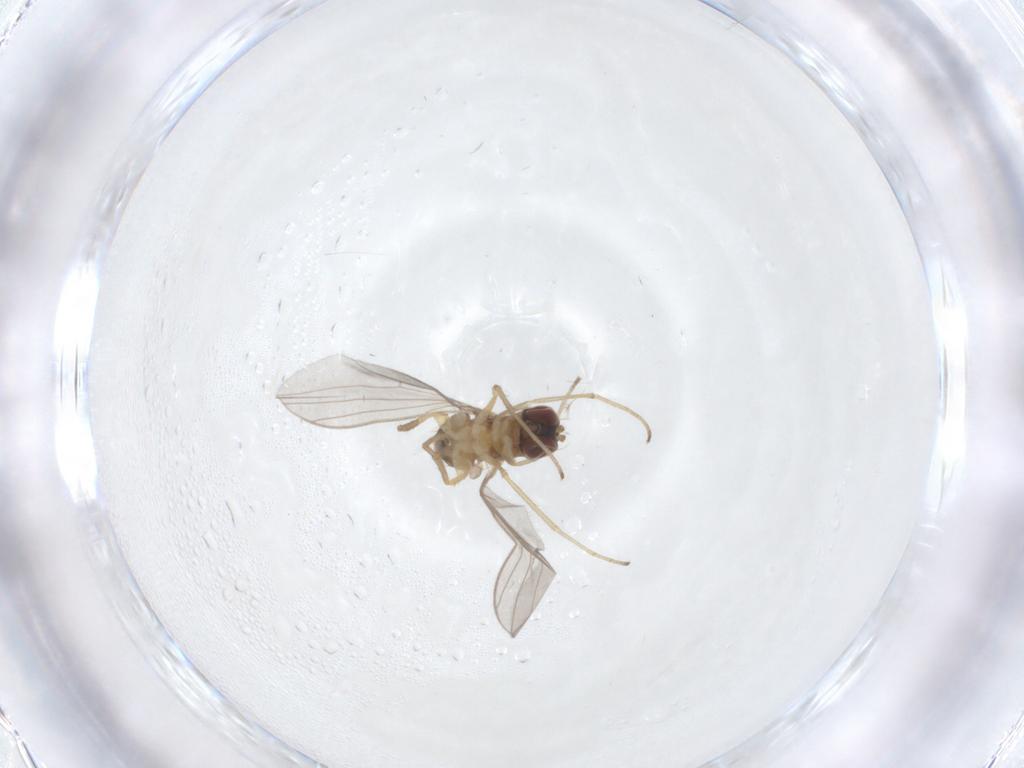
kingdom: Animalia
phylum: Arthropoda
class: Insecta
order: Diptera
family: Dolichopodidae
